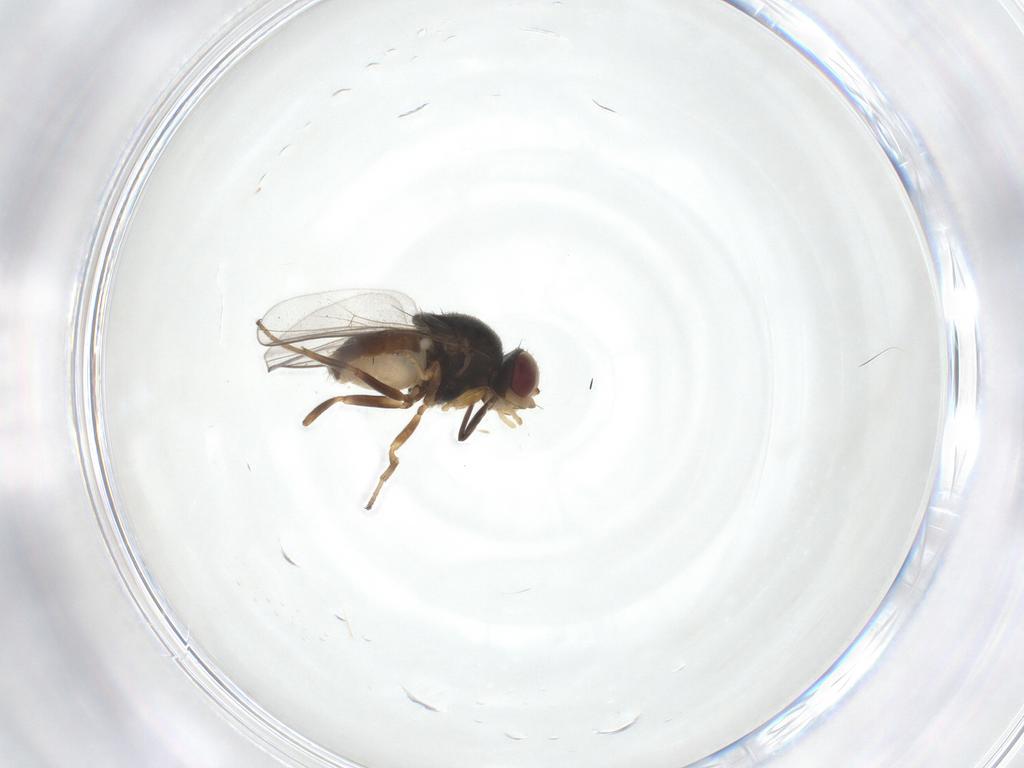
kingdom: Animalia
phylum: Arthropoda
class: Insecta
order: Diptera
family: Chloropidae
